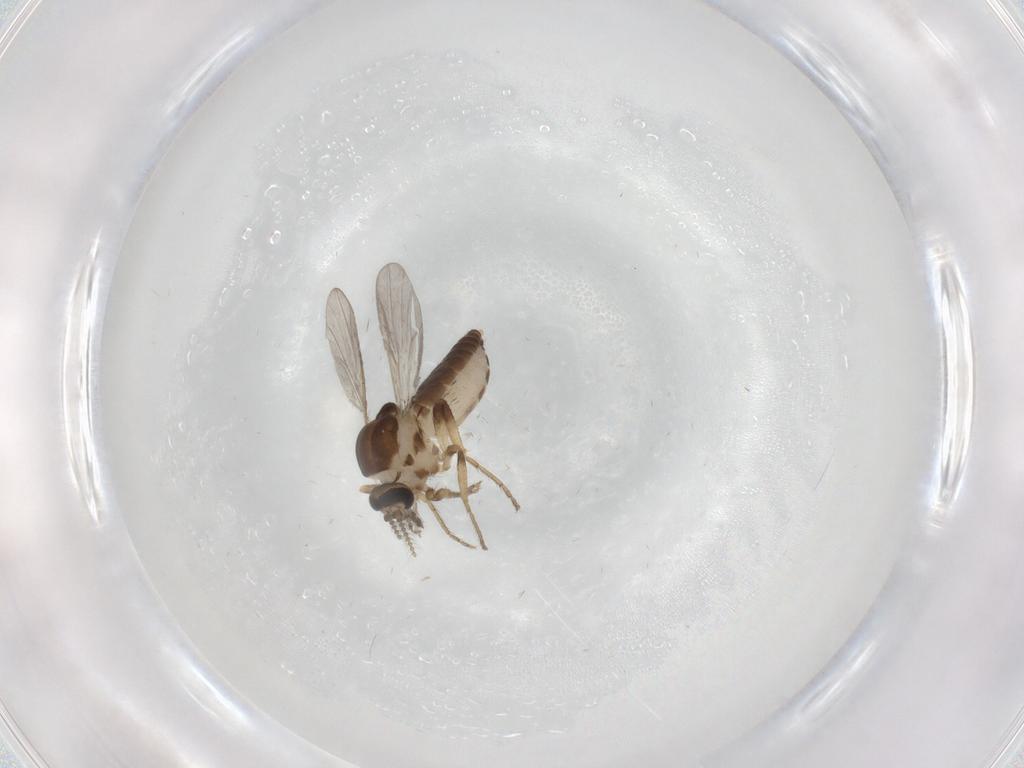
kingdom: Animalia
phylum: Arthropoda
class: Insecta
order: Diptera
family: Ceratopogonidae
